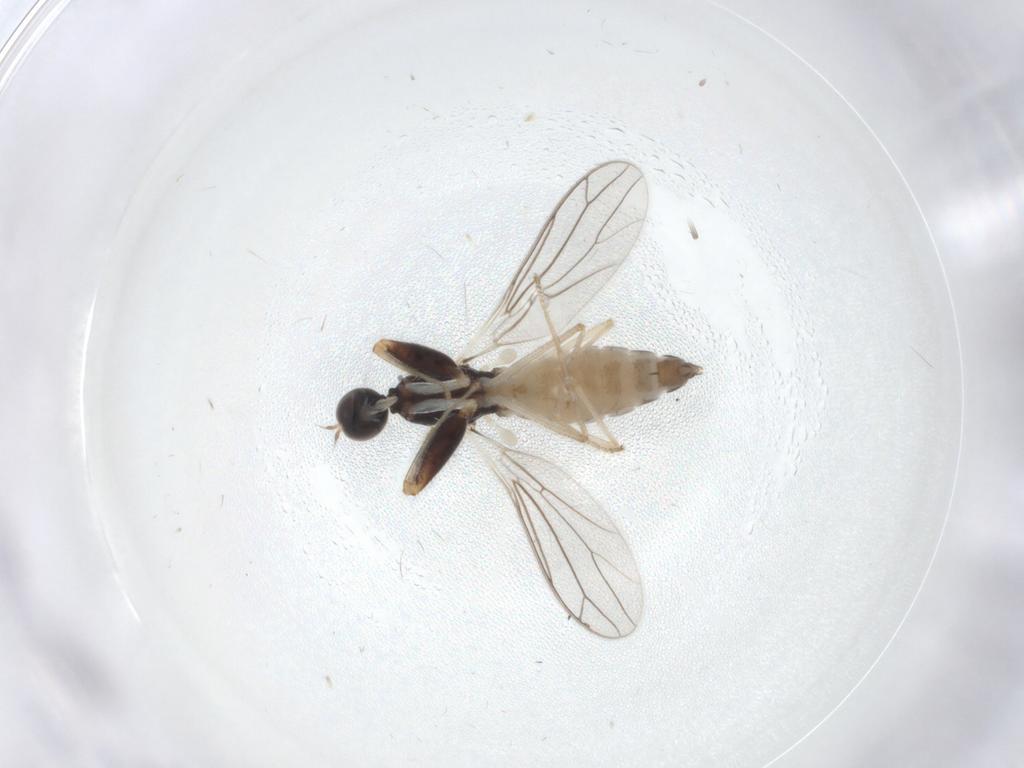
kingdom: Animalia
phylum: Arthropoda
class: Insecta
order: Diptera
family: Empididae
